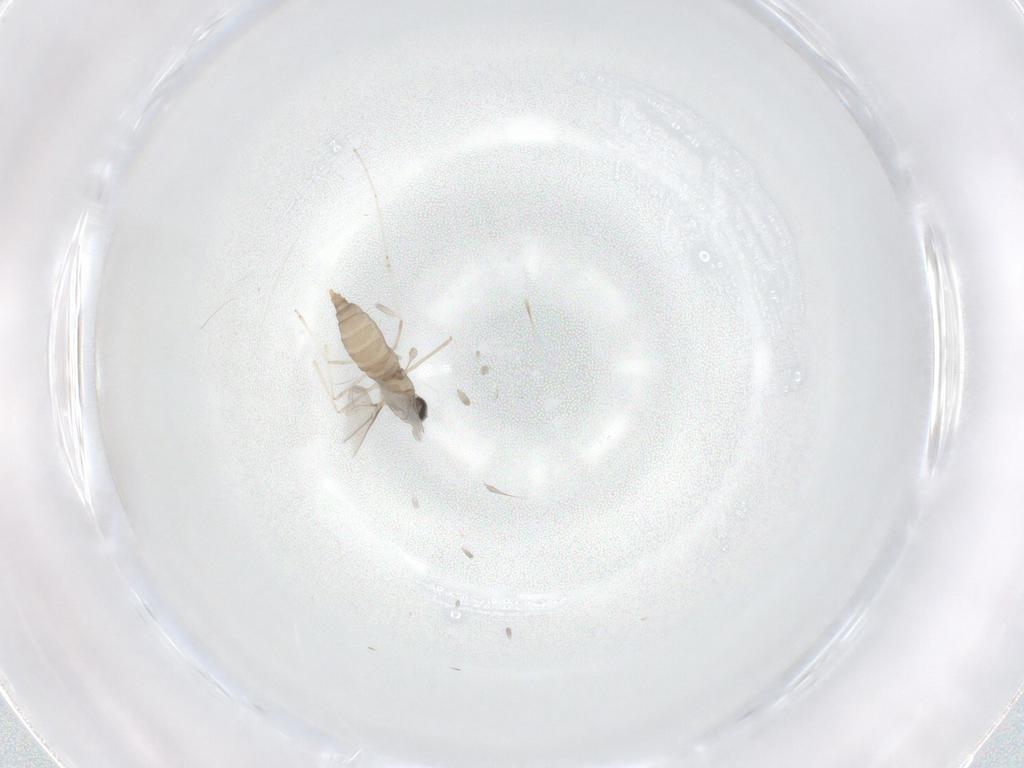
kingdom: Animalia
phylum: Arthropoda
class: Insecta
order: Diptera
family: Cecidomyiidae
